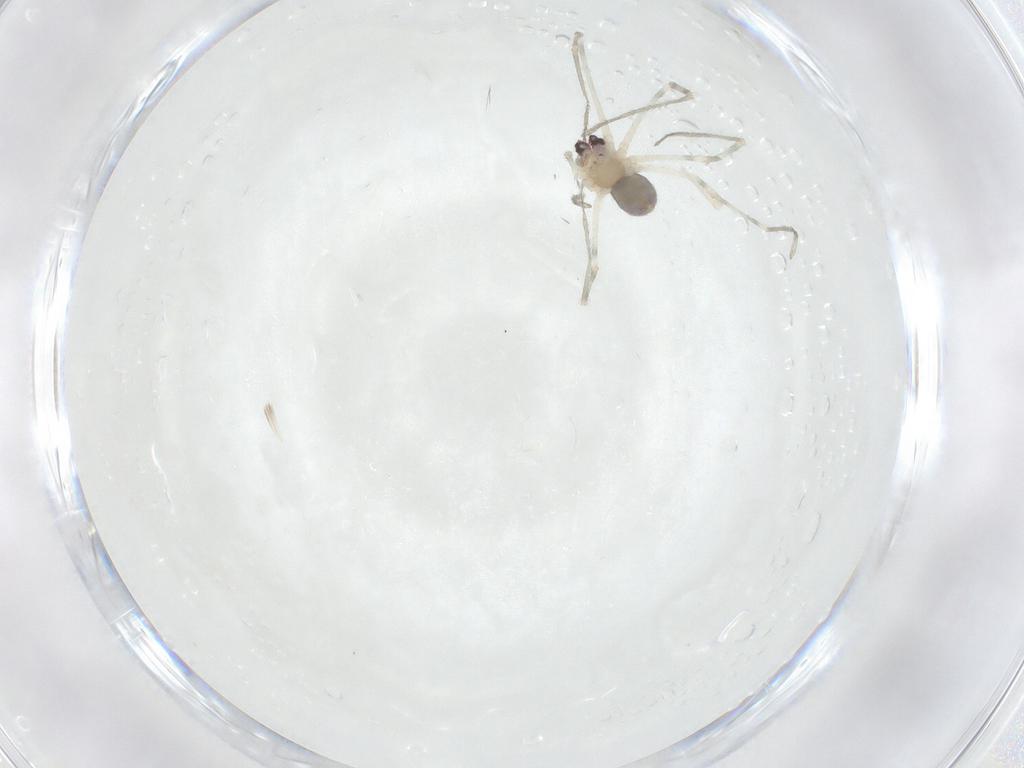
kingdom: Animalia
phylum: Arthropoda
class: Arachnida
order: Araneae
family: Pholcidae
